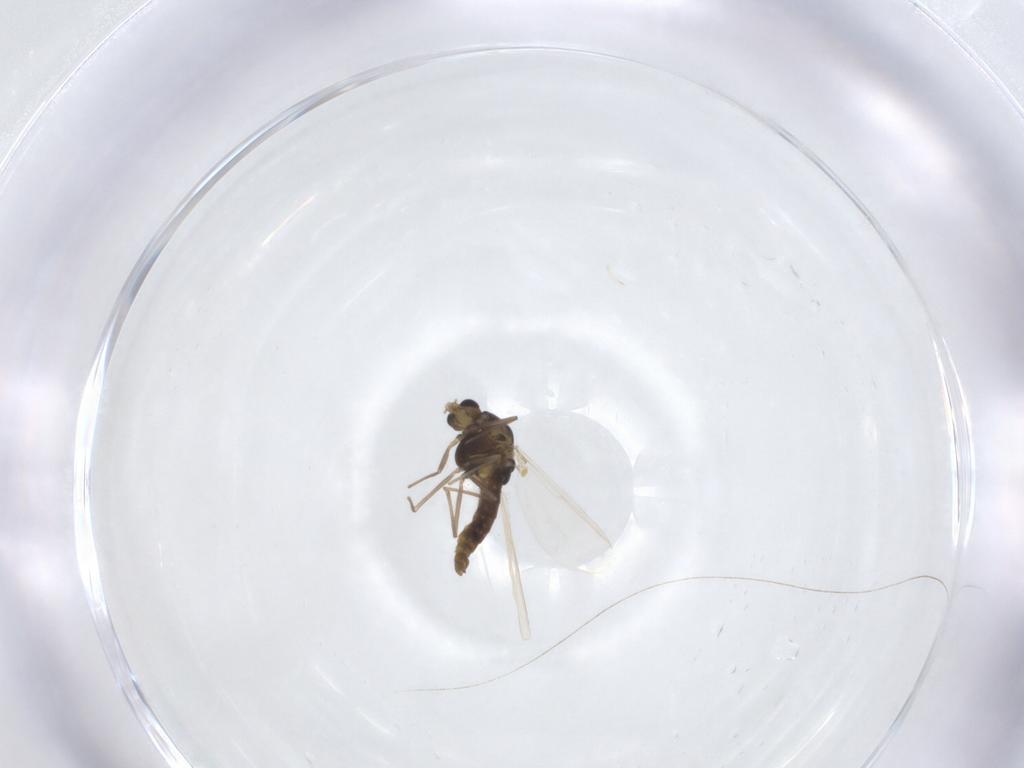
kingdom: Animalia
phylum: Arthropoda
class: Insecta
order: Diptera
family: Chironomidae
